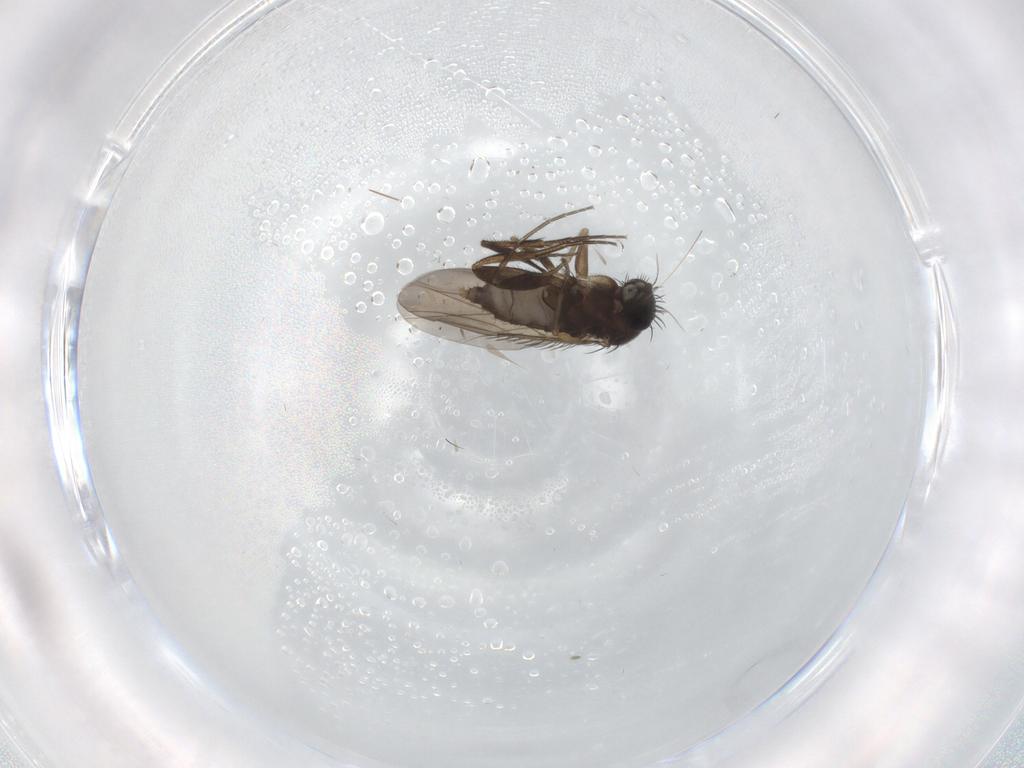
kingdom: Animalia
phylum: Arthropoda
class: Insecta
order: Diptera
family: Phoridae
